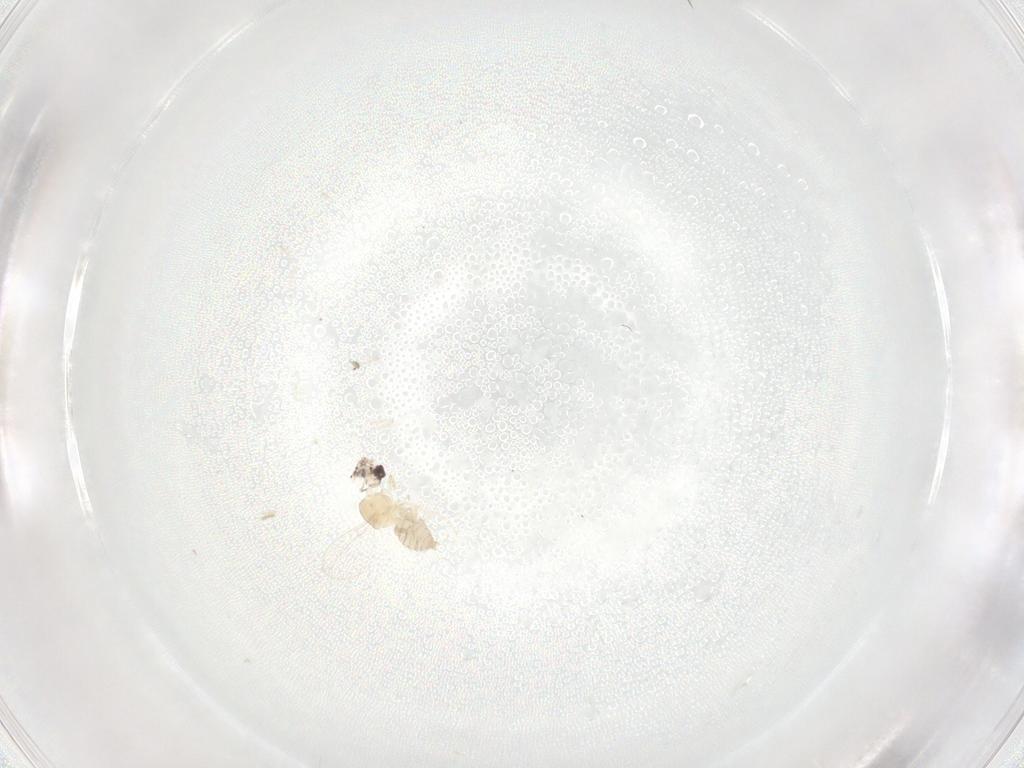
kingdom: Animalia
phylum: Arthropoda
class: Insecta
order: Diptera
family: Cecidomyiidae
